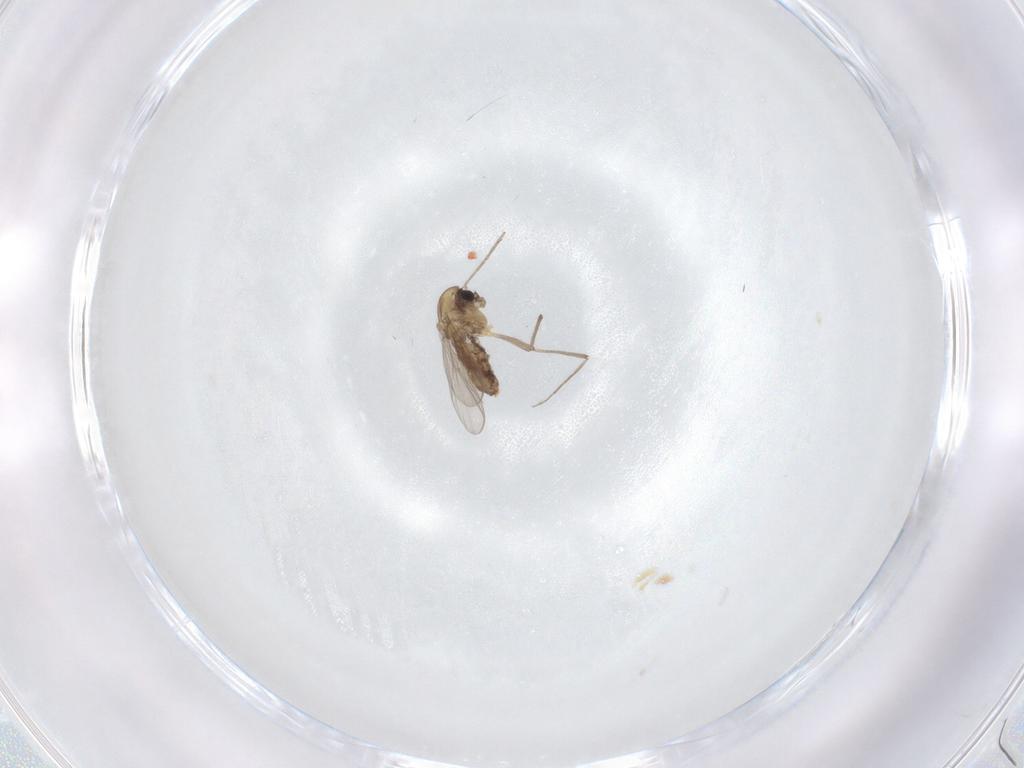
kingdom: Animalia
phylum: Arthropoda
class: Insecta
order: Diptera
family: Chironomidae
